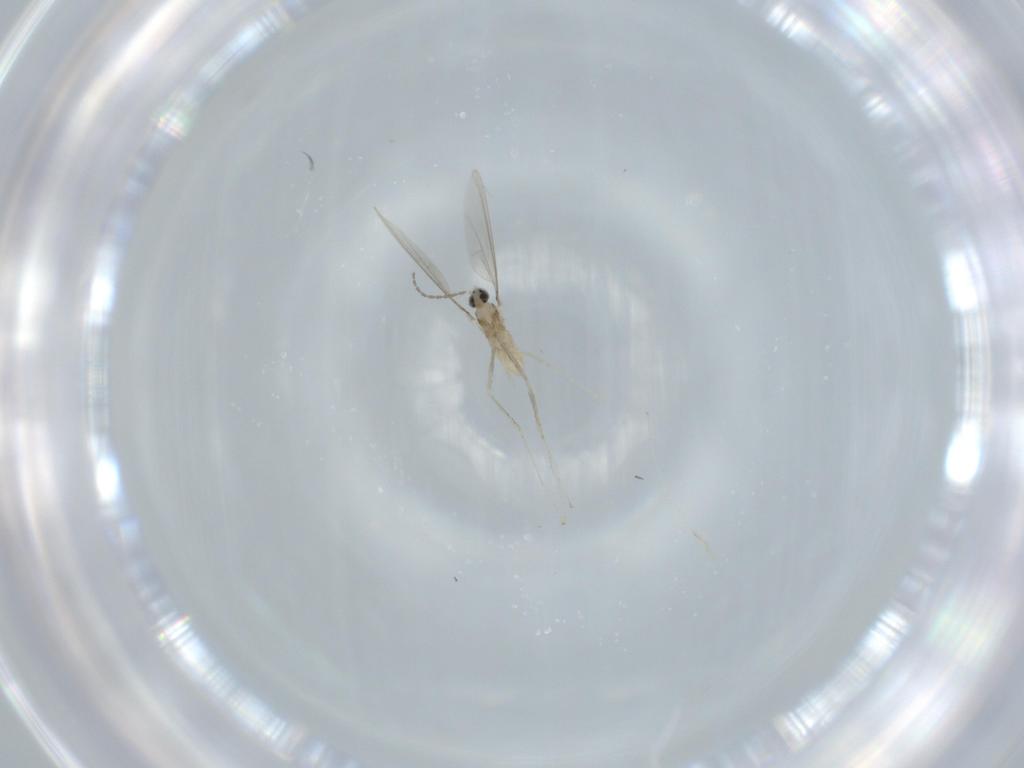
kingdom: Animalia
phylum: Arthropoda
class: Insecta
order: Diptera
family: Cecidomyiidae
